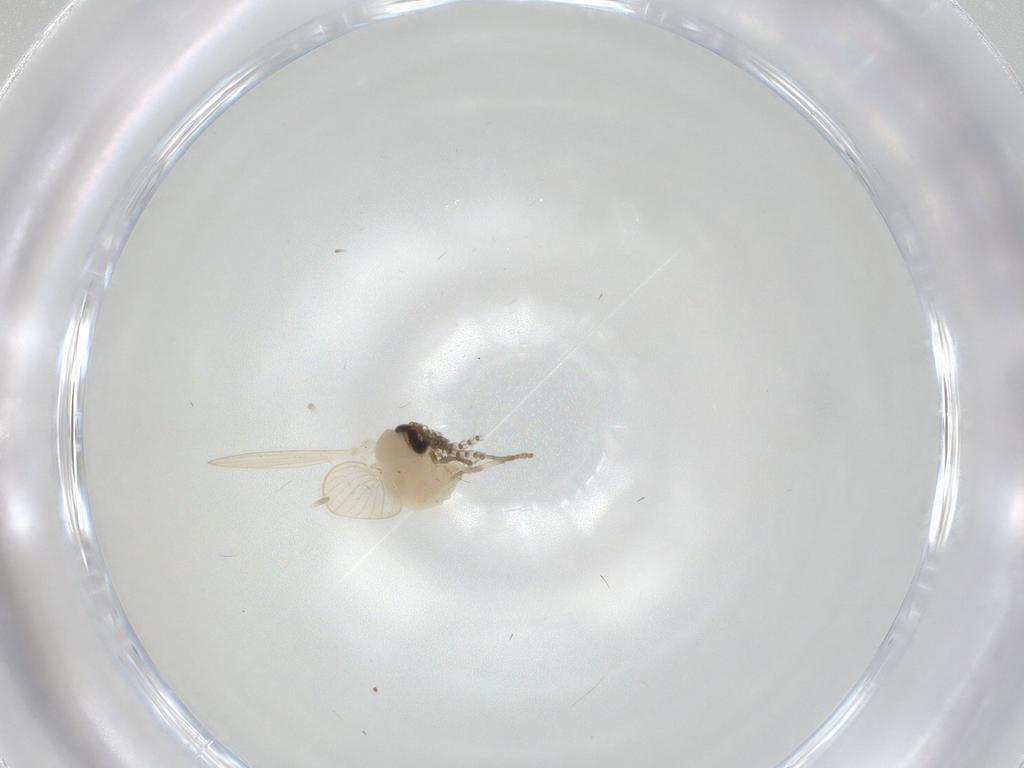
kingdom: Animalia
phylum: Arthropoda
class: Insecta
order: Diptera
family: Psychodidae
